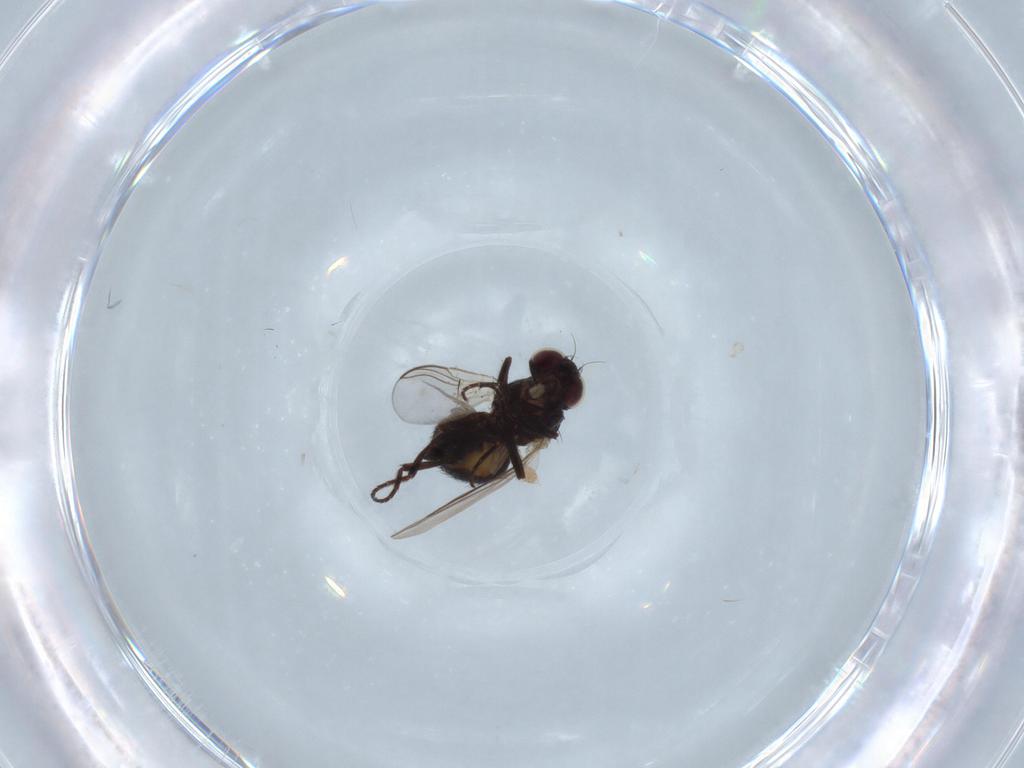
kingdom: Animalia
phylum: Arthropoda
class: Insecta
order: Diptera
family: Ceratopogonidae
